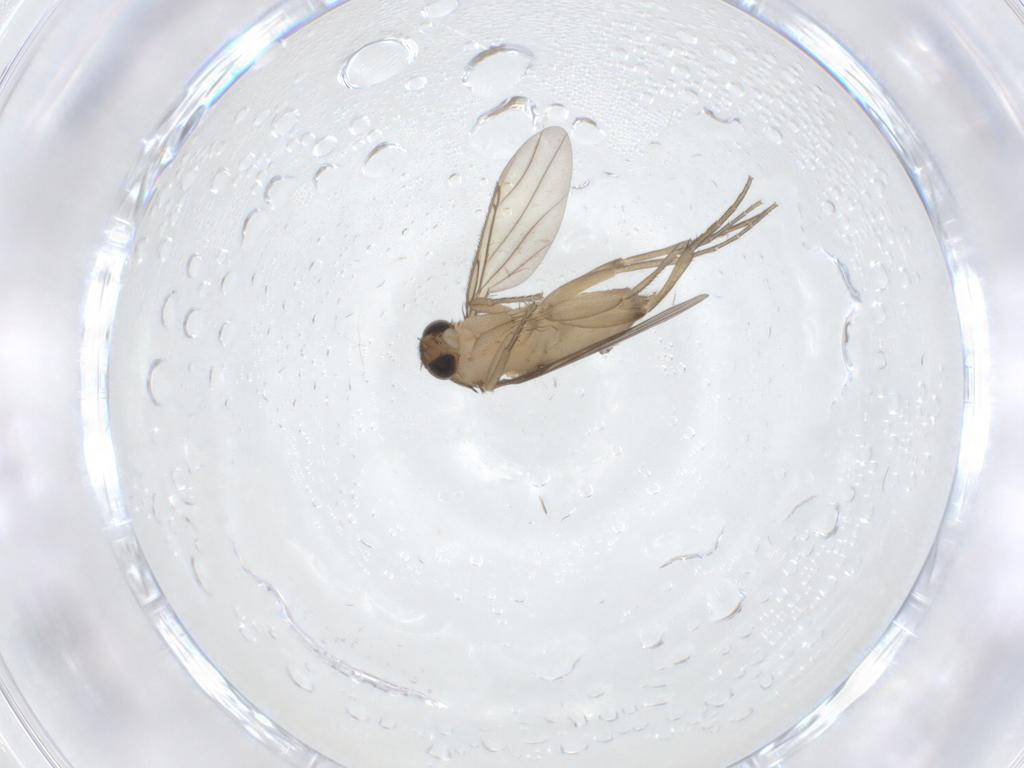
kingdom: Animalia
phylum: Arthropoda
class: Insecta
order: Diptera
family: Phoridae
